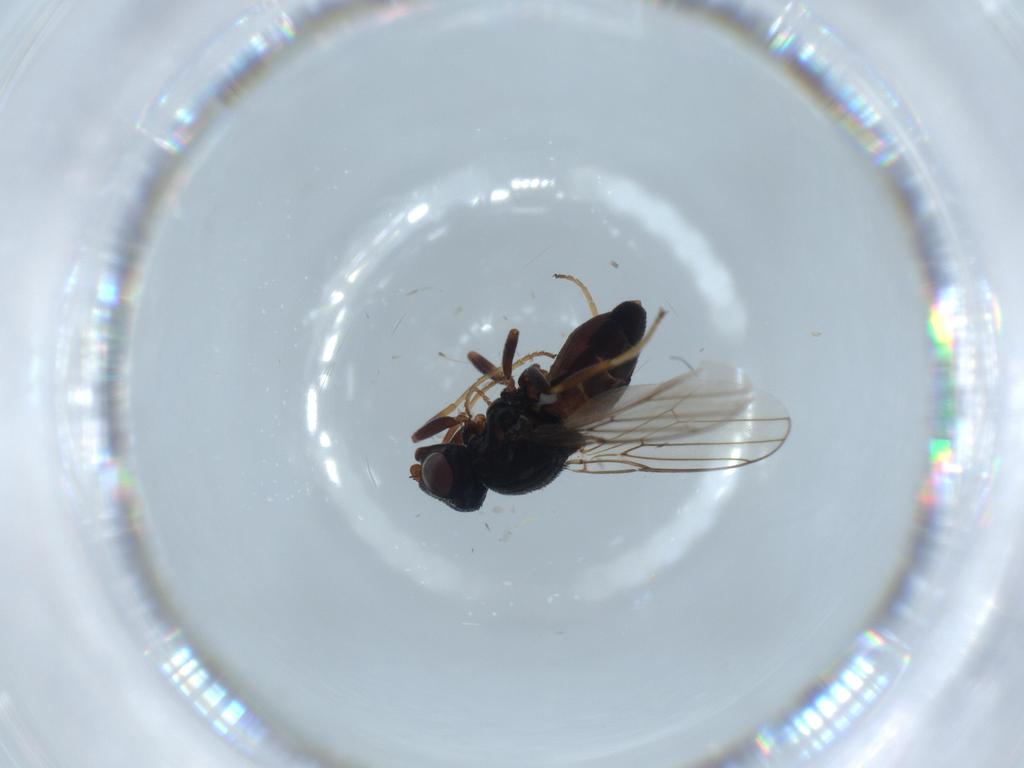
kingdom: Animalia
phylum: Arthropoda
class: Insecta
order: Diptera
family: Chloropidae
